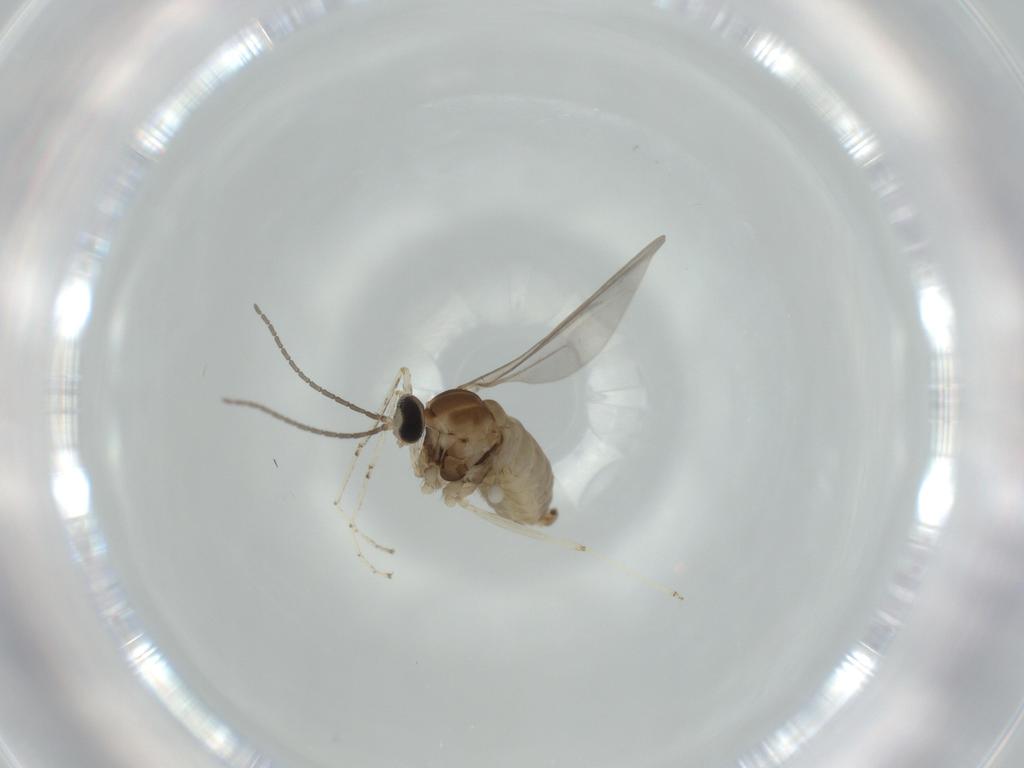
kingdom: Animalia
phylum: Arthropoda
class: Insecta
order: Diptera
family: Cecidomyiidae
